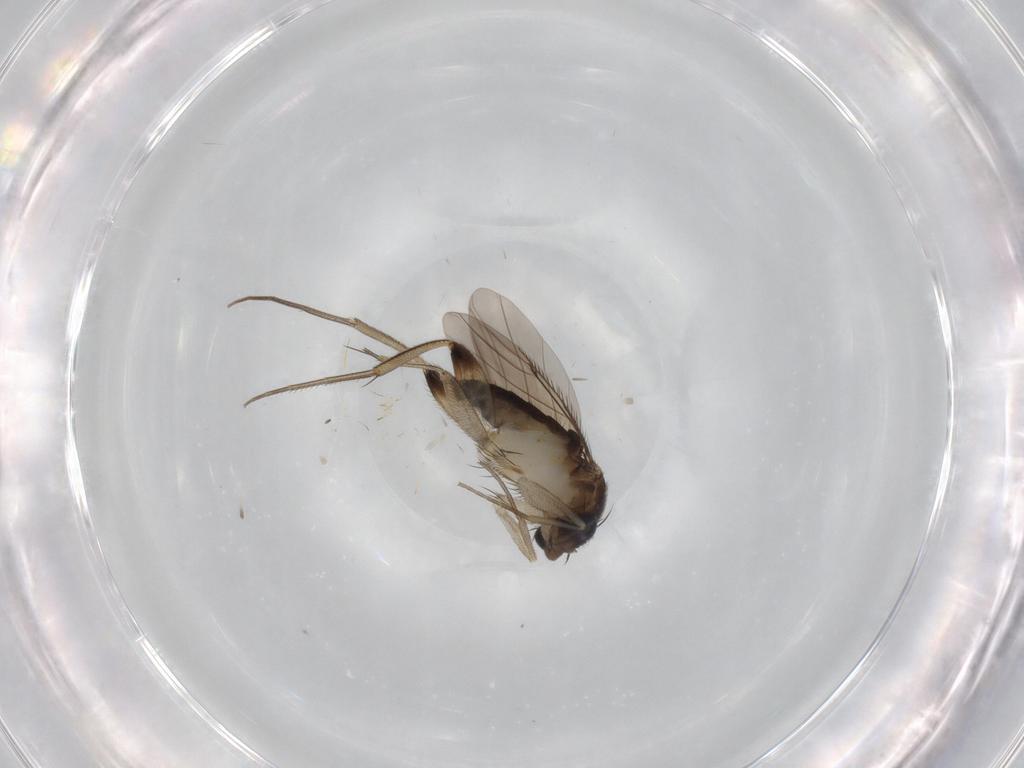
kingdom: Animalia
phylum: Arthropoda
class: Insecta
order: Diptera
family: Phoridae
